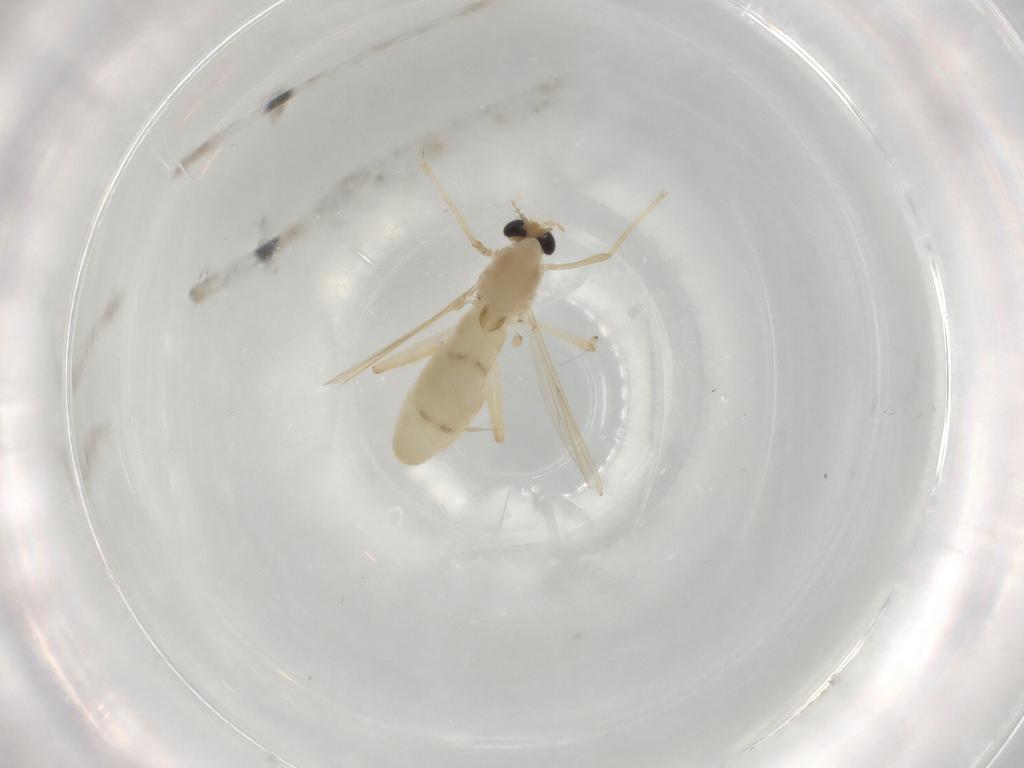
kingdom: Animalia
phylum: Arthropoda
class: Insecta
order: Diptera
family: Chironomidae
